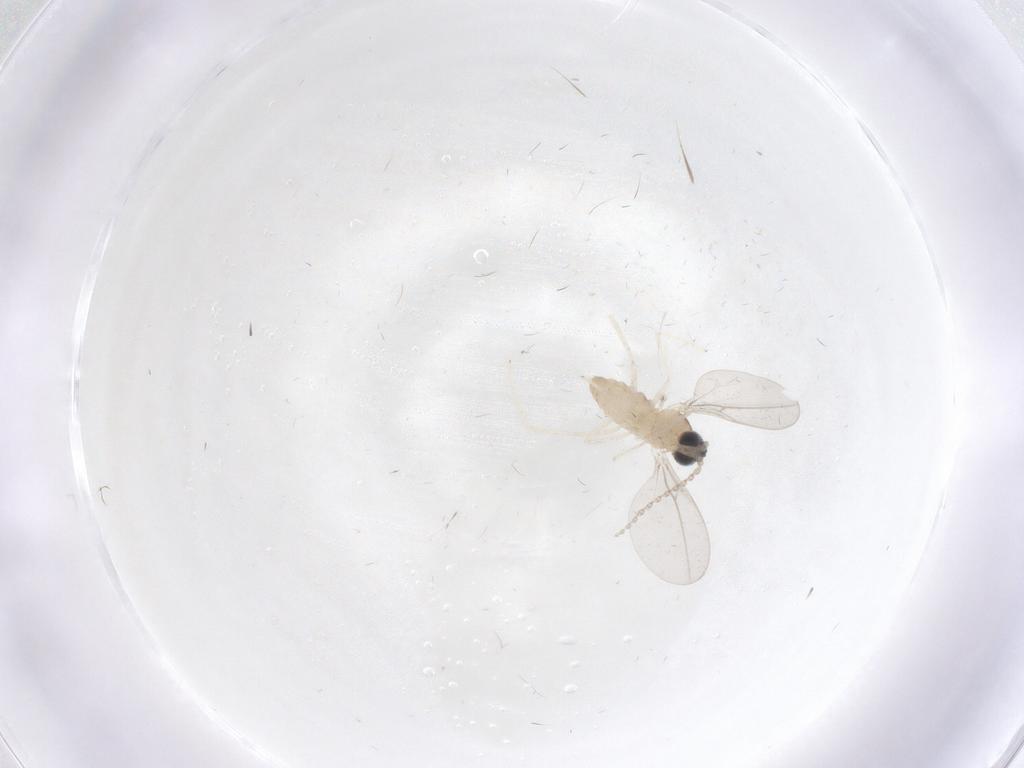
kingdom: Animalia
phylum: Arthropoda
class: Insecta
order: Diptera
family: Cecidomyiidae
